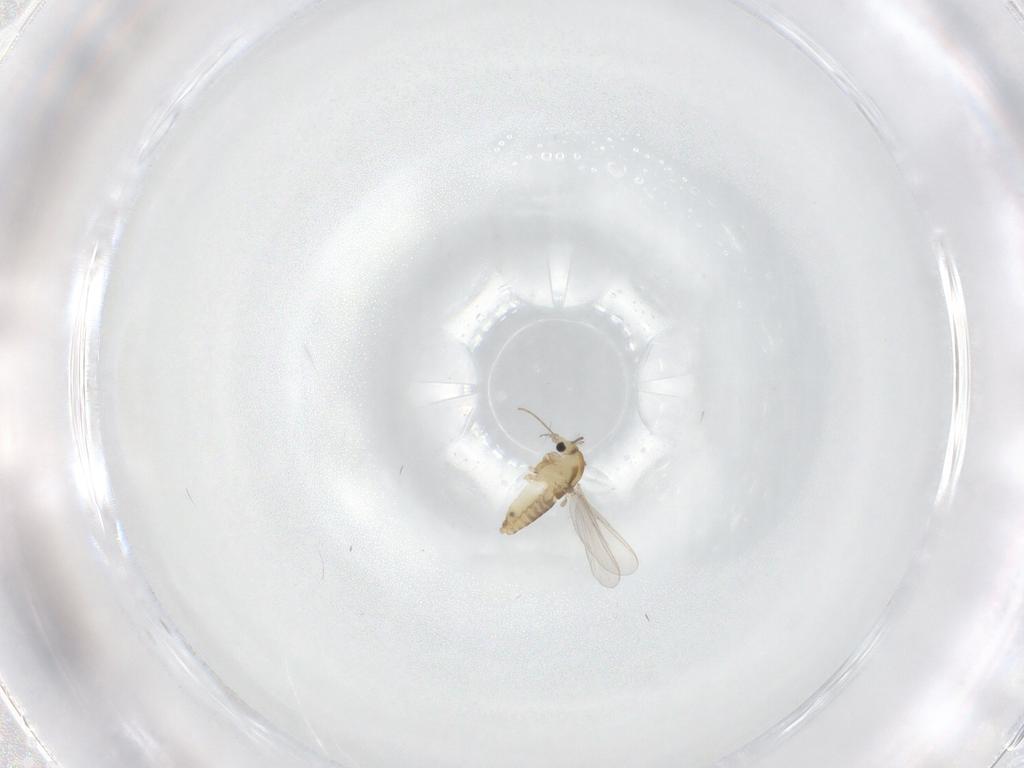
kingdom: Animalia
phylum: Arthropoda
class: Insecta
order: Diptera
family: Chironomidae
